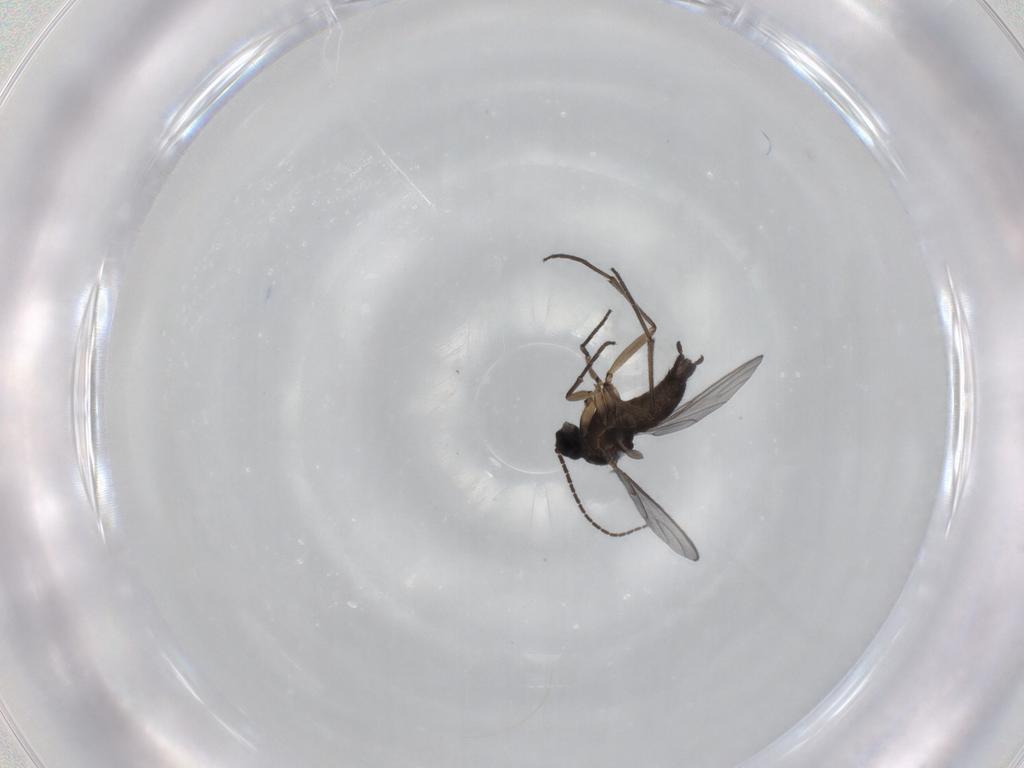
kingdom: Animalia
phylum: Arthropoda
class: Insecta
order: Diptera
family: Sciaridae
